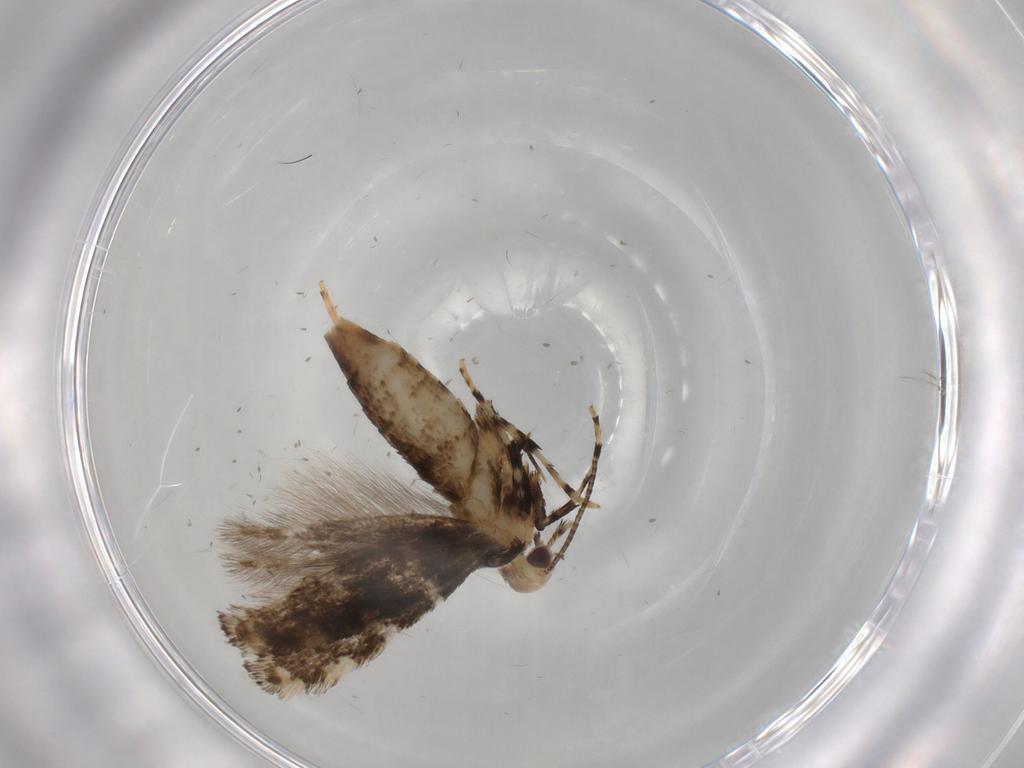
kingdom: Animalia
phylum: Arthropoda
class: Insecta
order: Lepidoptera
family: Gracillariidae
